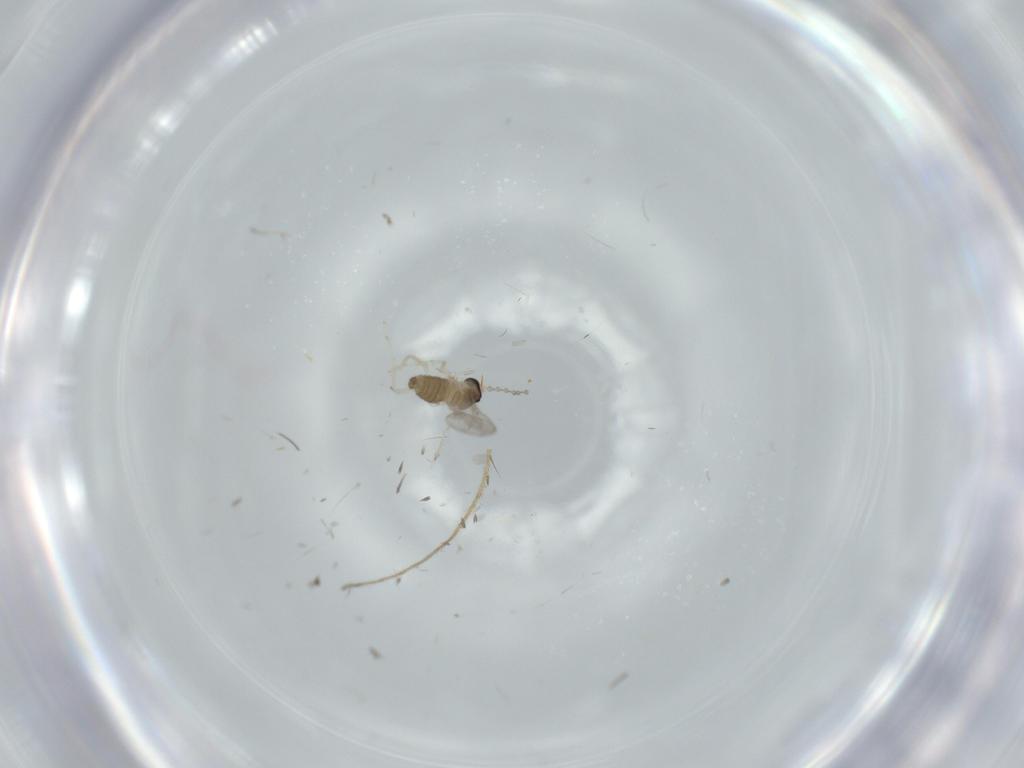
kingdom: Animalia
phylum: Arthropoda
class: Insecta
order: Diptera
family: Cecidomyiidae
